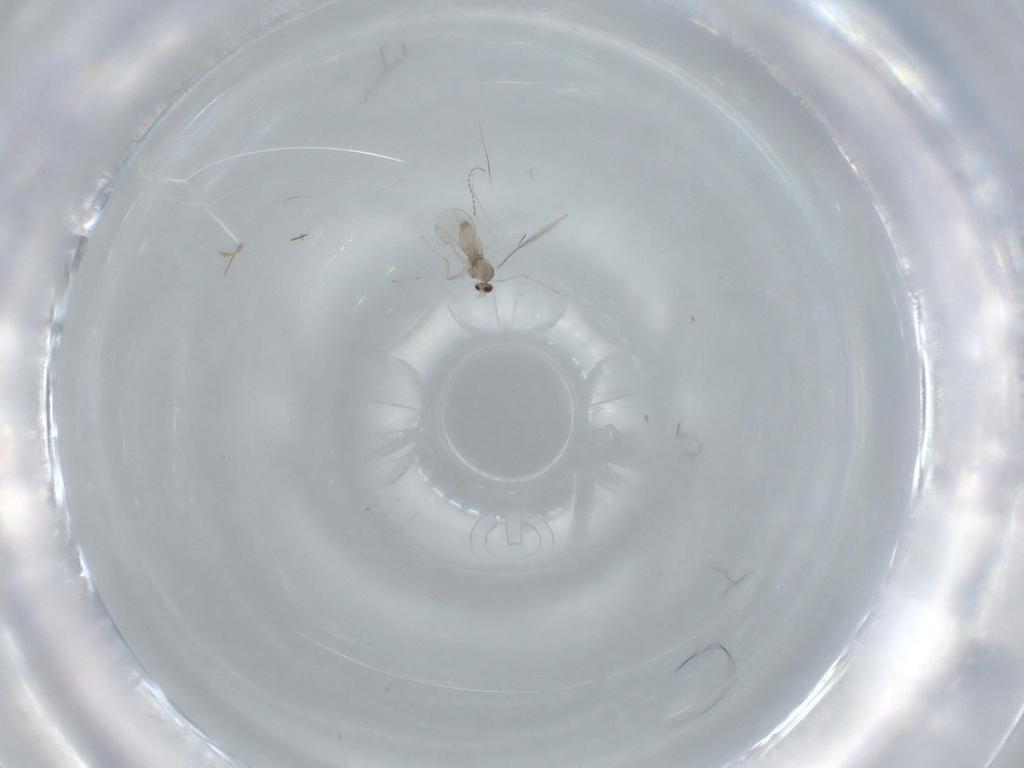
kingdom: Animalia
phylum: Arthropoda
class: Insecta
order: Diptera
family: Cecidomyiidae
